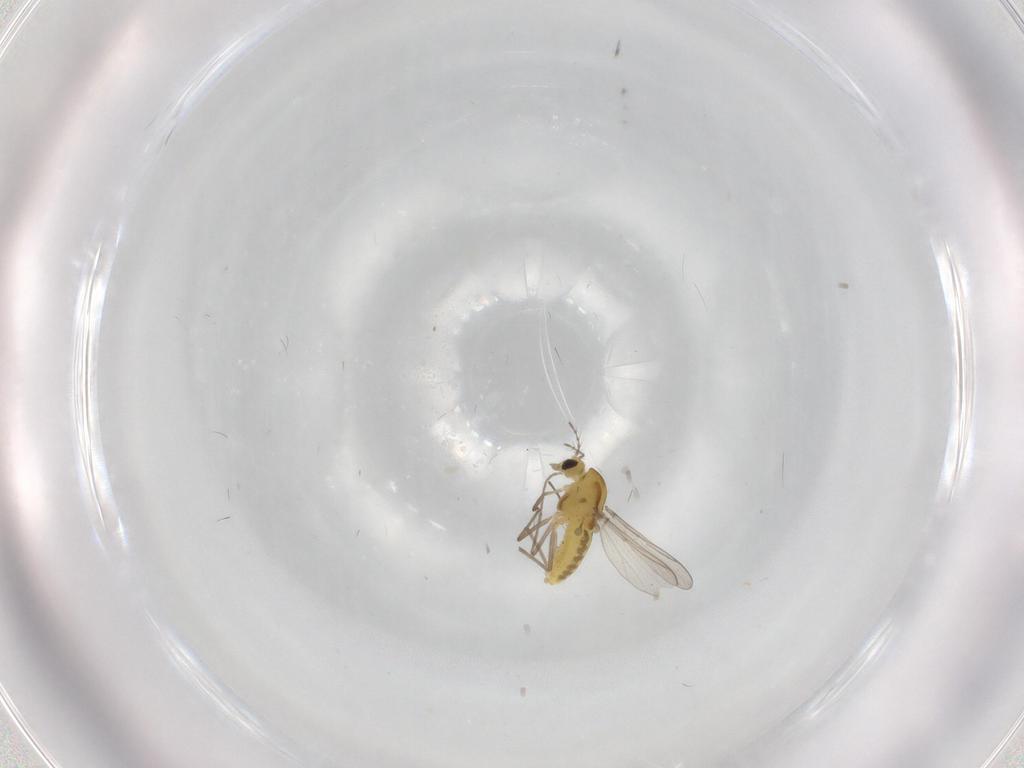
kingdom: Animalia
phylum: Arthropoda
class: Insecta
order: Diptera
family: Chironomidae
